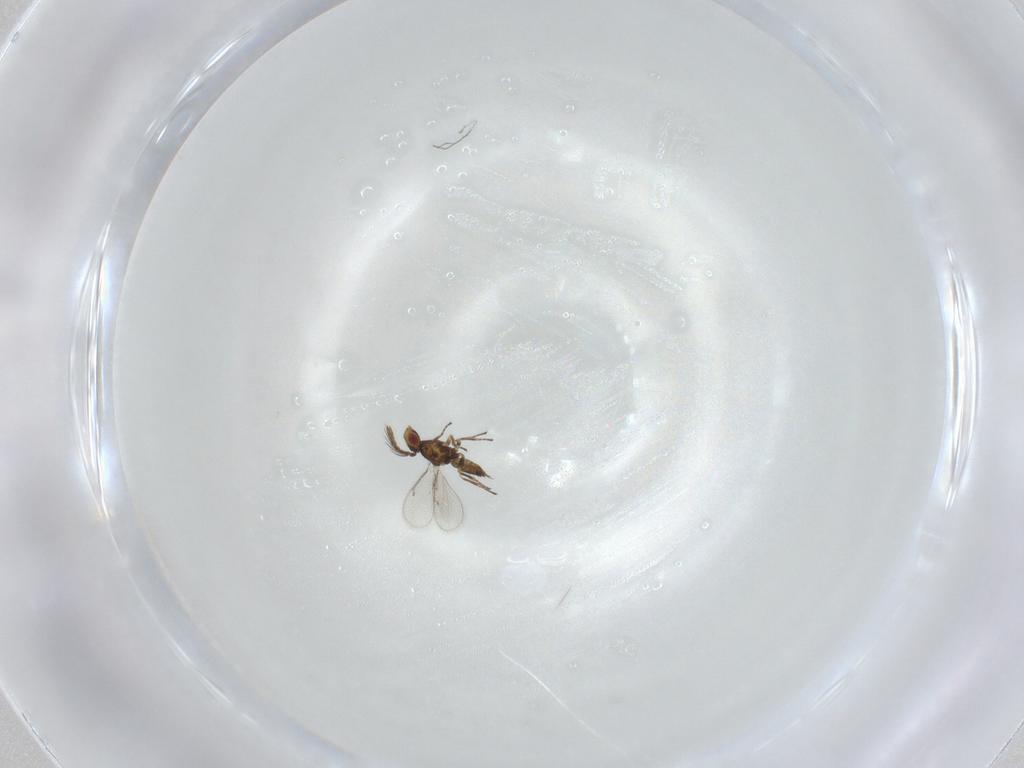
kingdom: Animalia
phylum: Arthropoda
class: Insecta
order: Hymenoptera
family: Eulophidae
